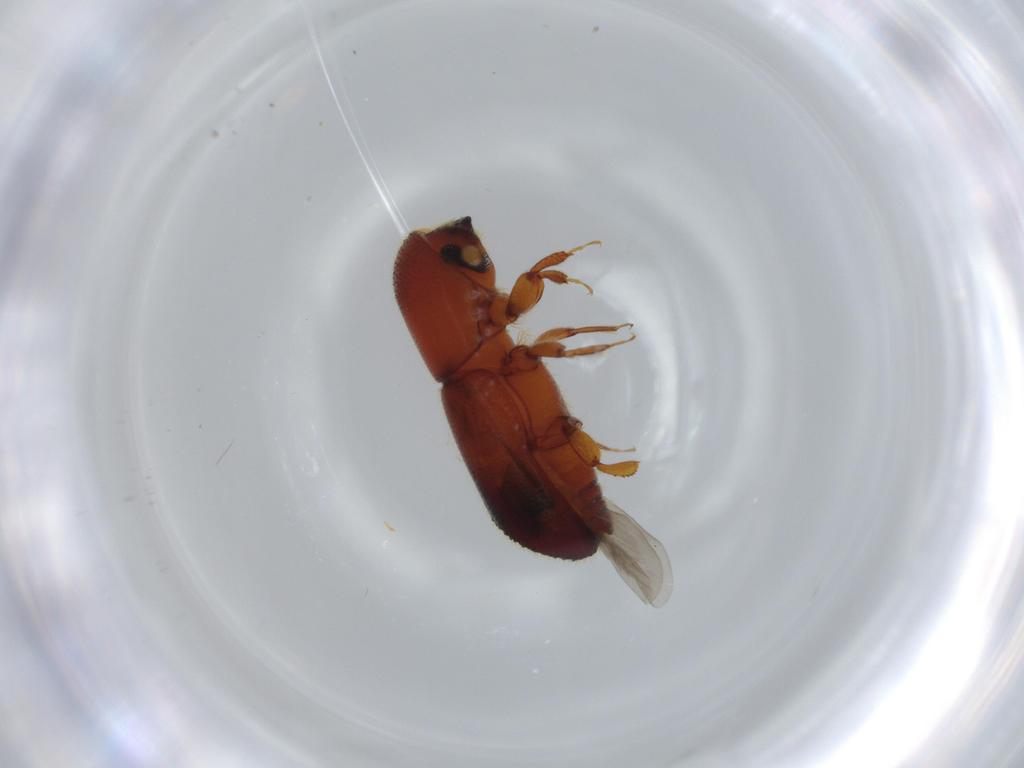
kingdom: Animalia
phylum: Arthropoda
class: Insecta
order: Coleoptera
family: Curculionidae
